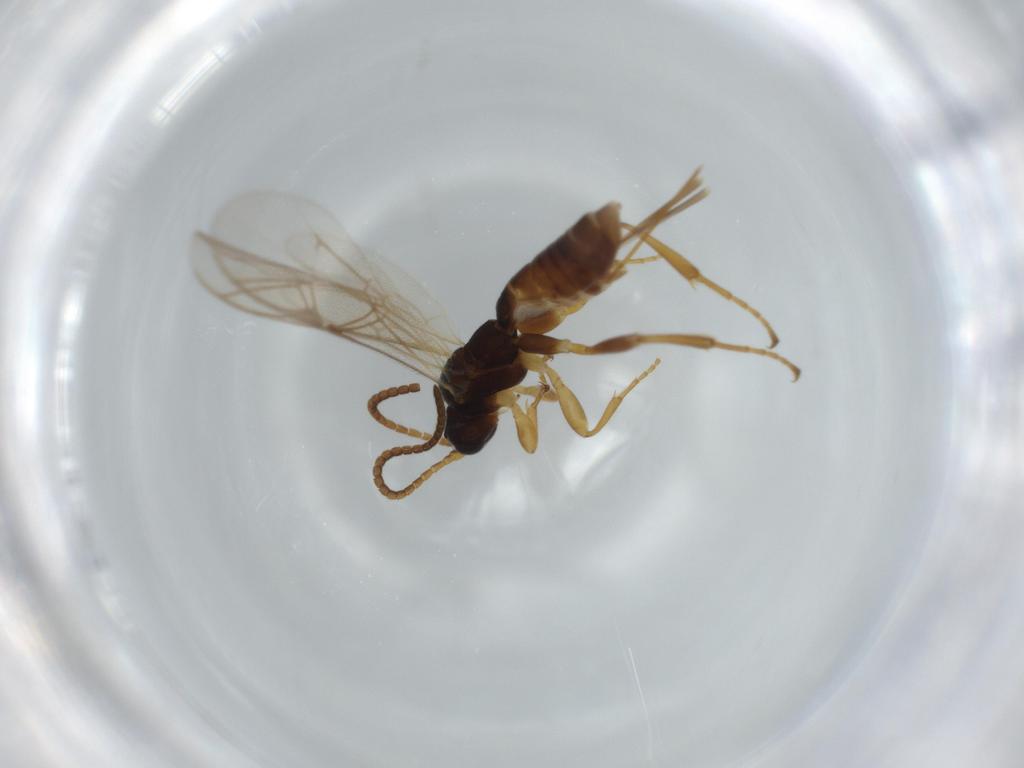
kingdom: Animalia
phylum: Arthropoda
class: Insecta
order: Hymenoptera
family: Ichneumonidae
